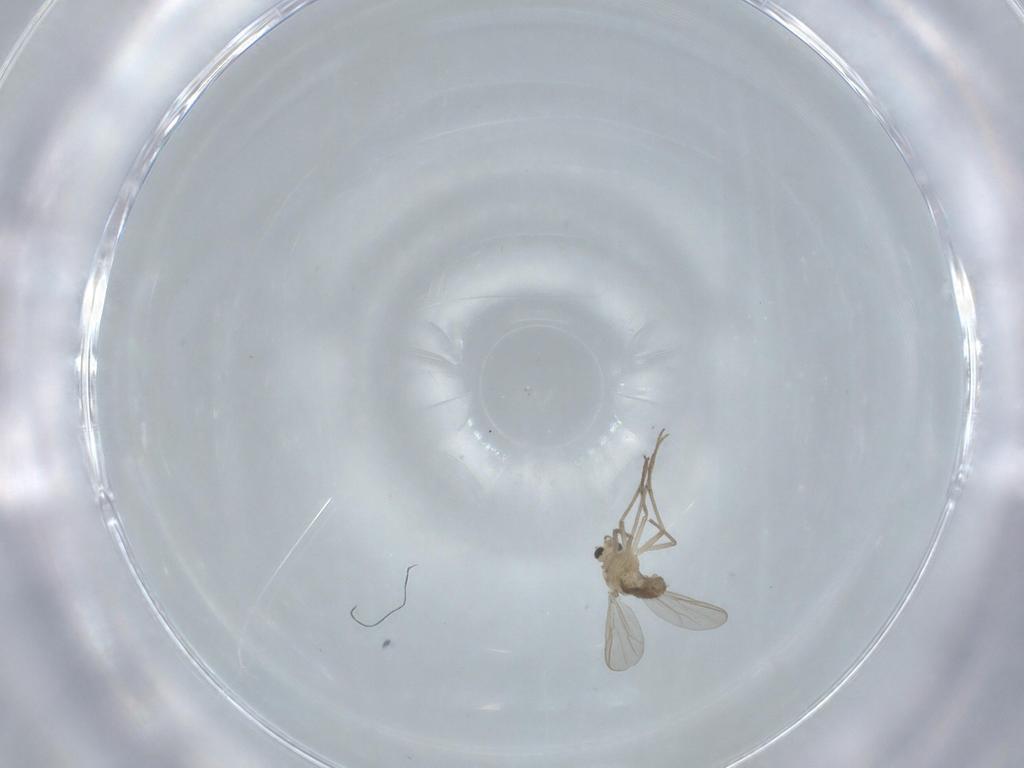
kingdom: Animalia
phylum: Arthropoda
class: Insecta
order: Diptera
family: Chironomidae
